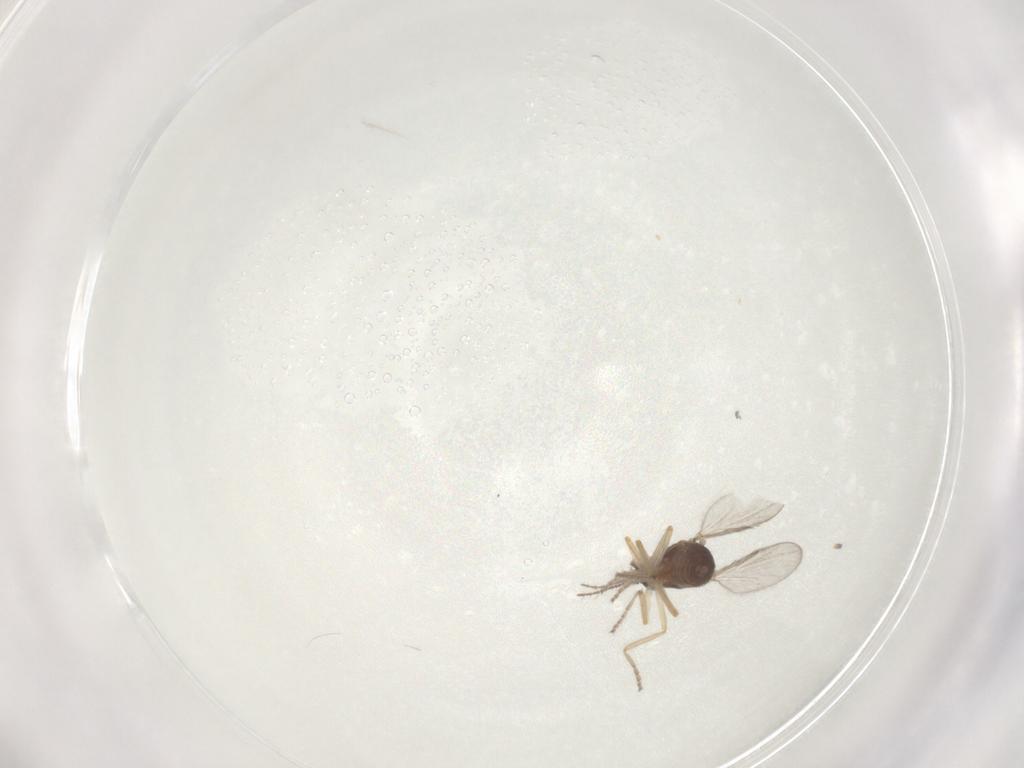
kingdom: Animalia
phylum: Arthropoda
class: Insecta
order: Diptera
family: Ceratopogonidae
